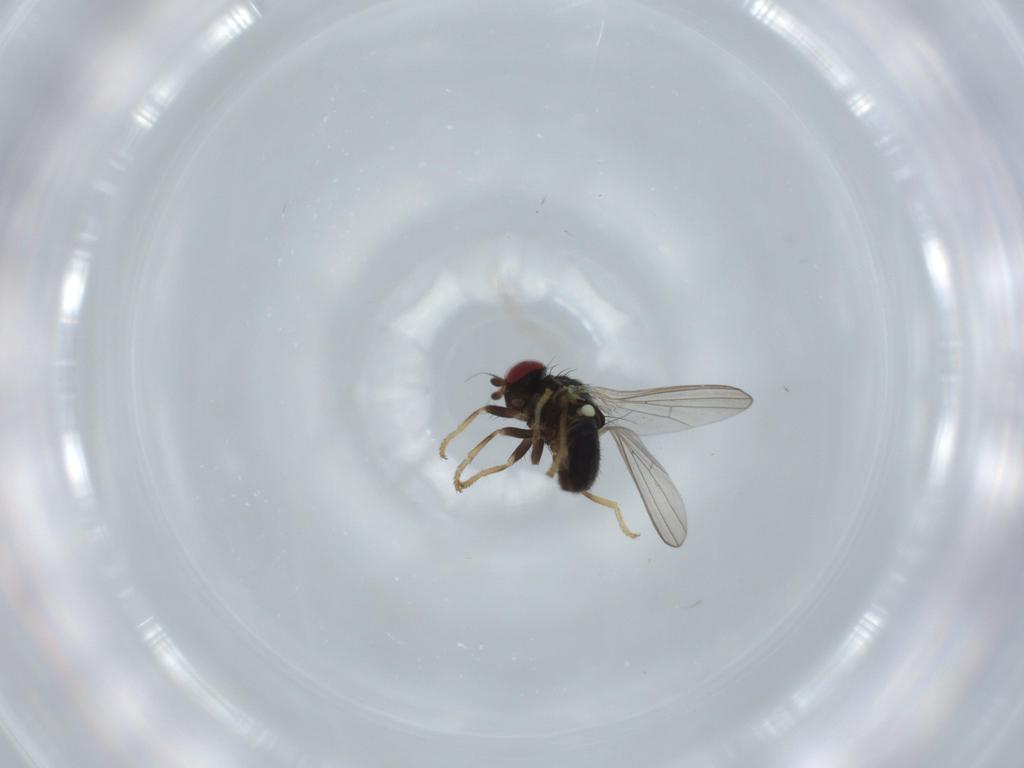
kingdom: Animalia
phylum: Arthropoda
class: Insecta
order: Diptera
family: Chamaemyiidae
